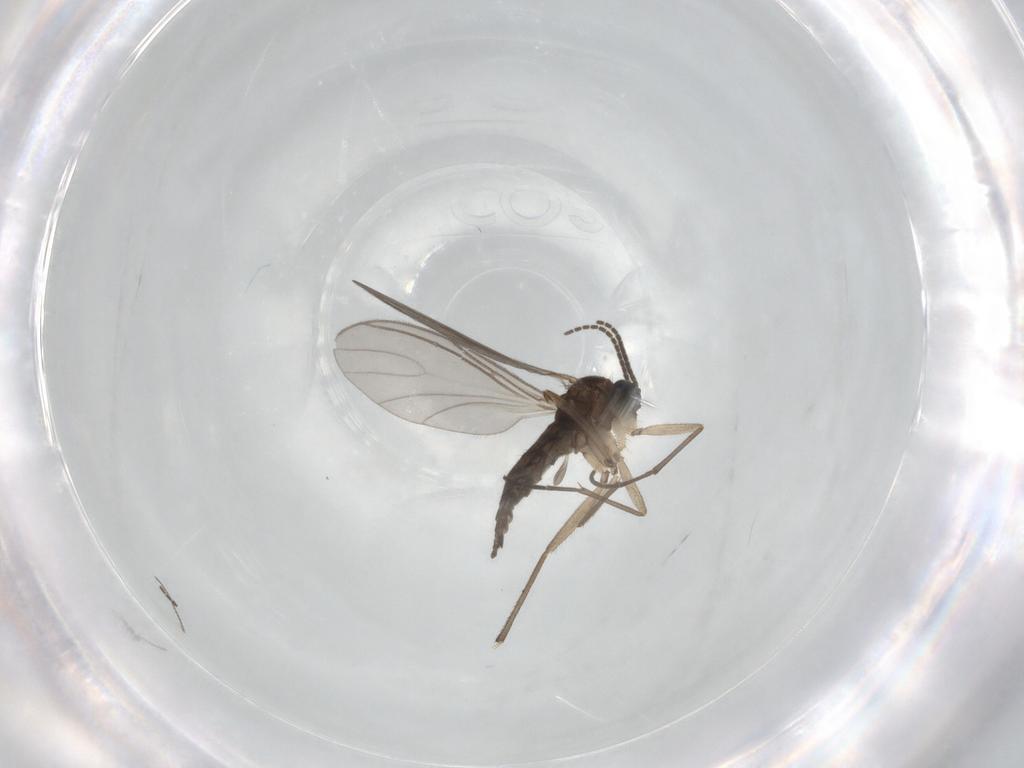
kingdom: Animalia
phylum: Arthropoda
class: Insecta
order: Diptera
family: Sciaridae
